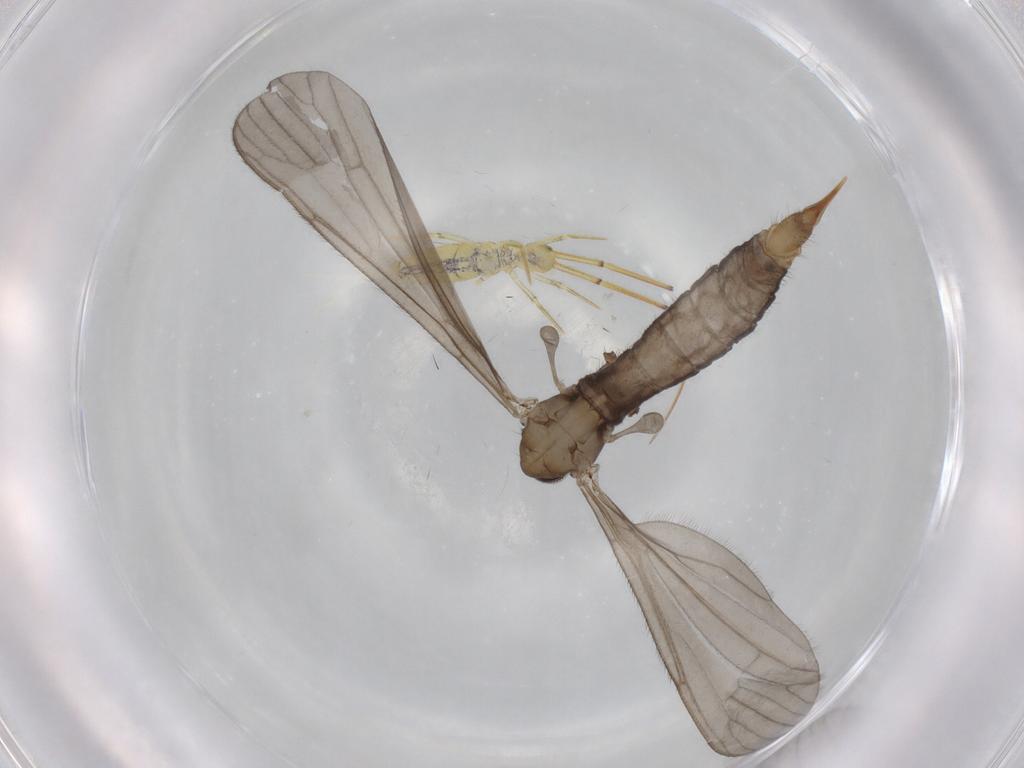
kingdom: Animalia
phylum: Arthropoda
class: Insecta
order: Diptera
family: Limoniidae
